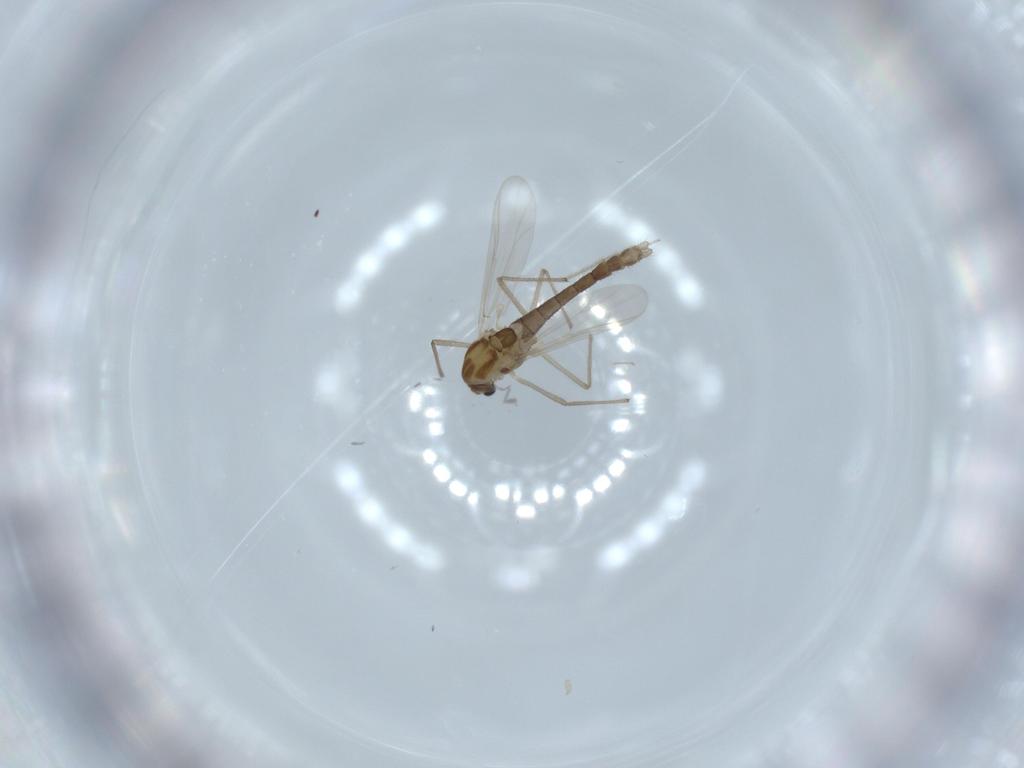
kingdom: Animalia
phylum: Arthropoda
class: Insecta
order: Diptera
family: Chironomidae
